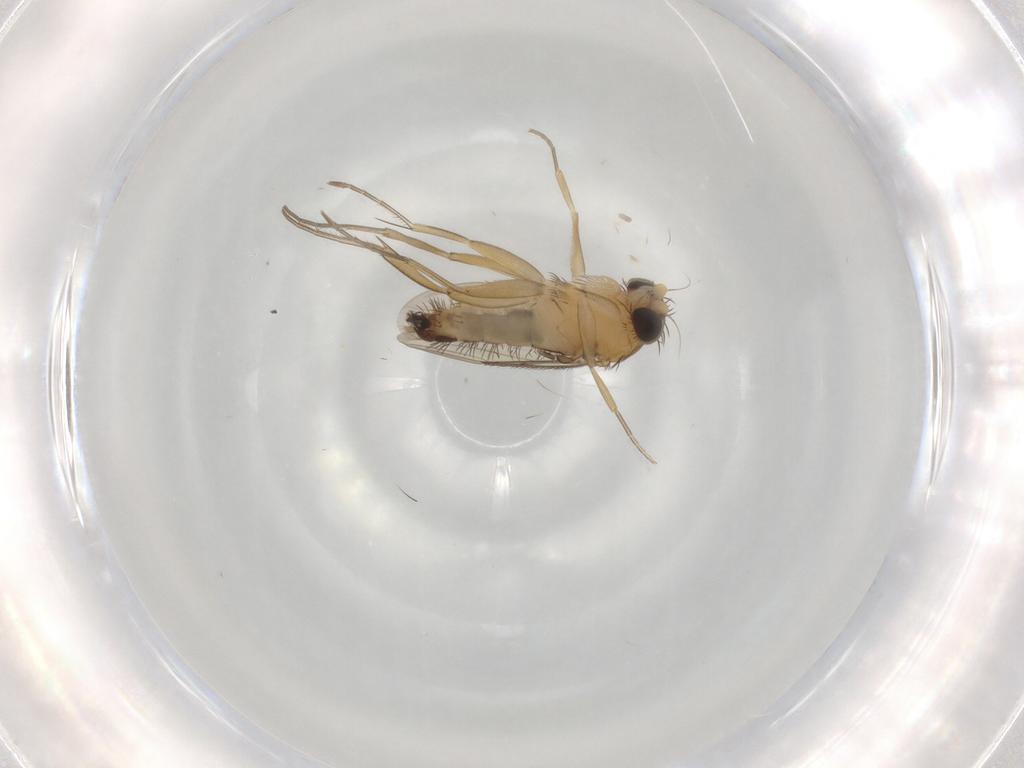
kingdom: Animalia
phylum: Arthropoda
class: Insecta
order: Diptera
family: Phoridae
